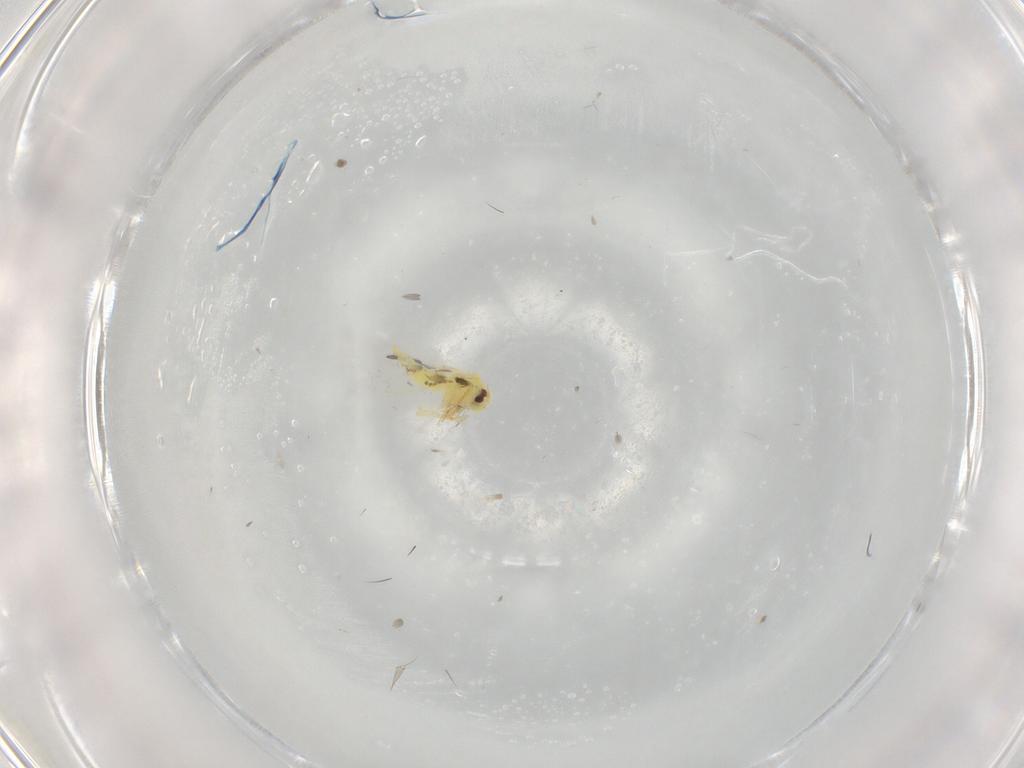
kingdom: Animalia
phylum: Arthropoda
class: Insecta
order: Hemiptera
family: Aleyrodidae
